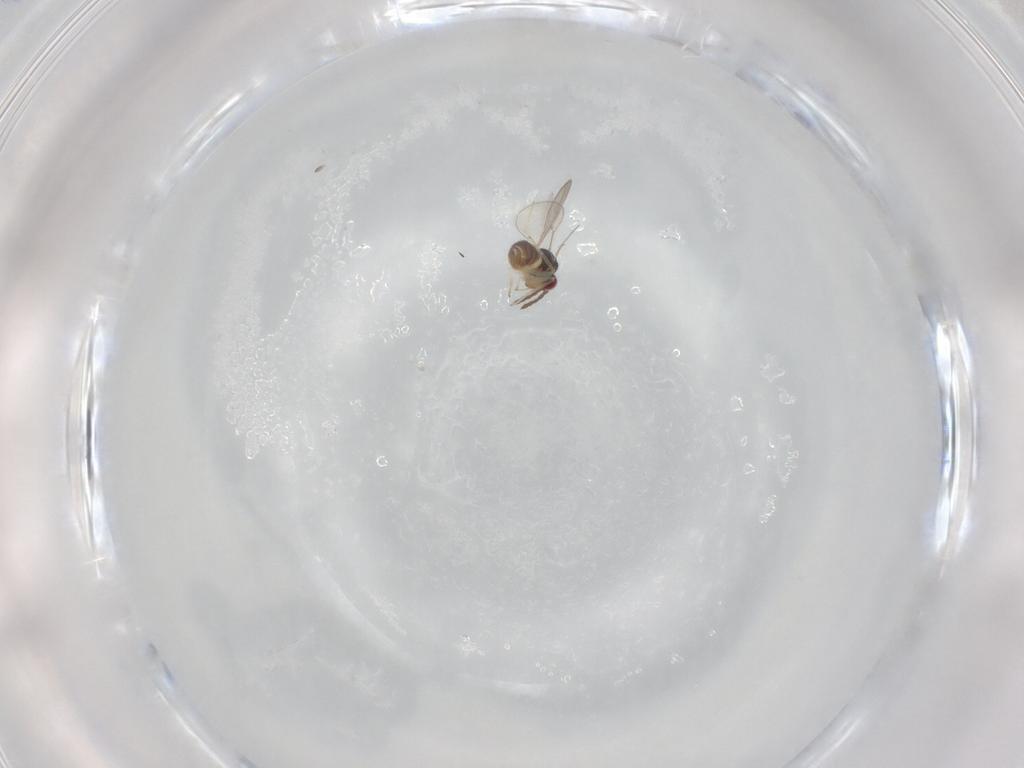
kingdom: Animalia
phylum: Arthropoda
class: Insecta
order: Hymenoptera
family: Eulophidae
